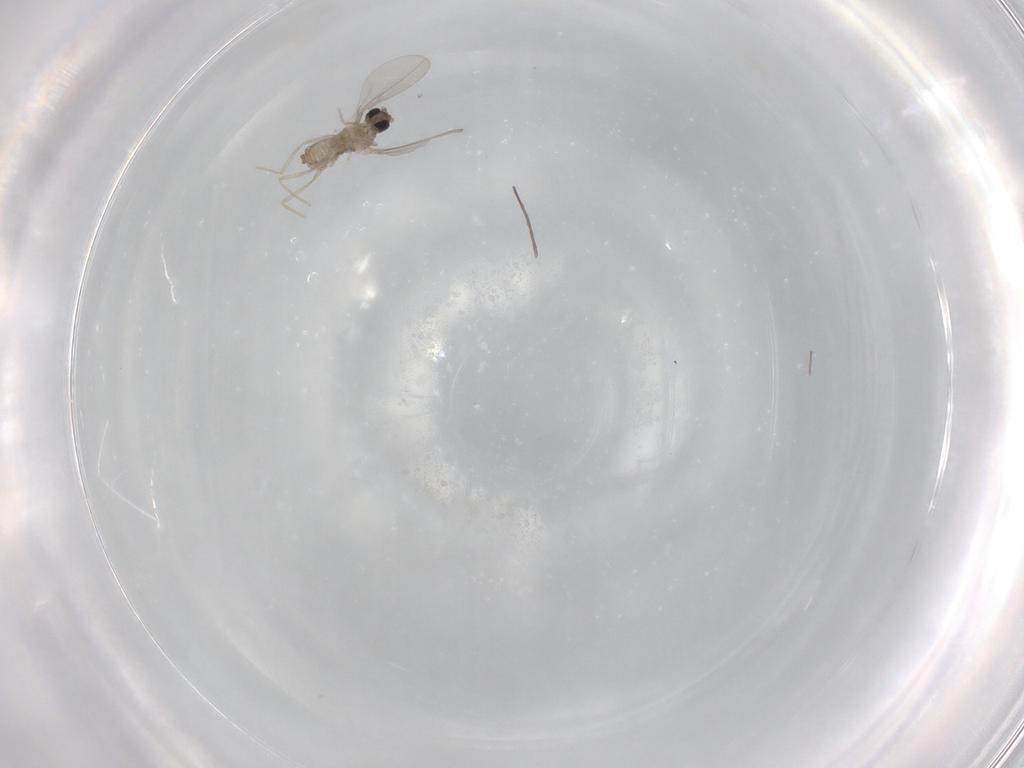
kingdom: Animalia
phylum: Arthropoda
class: Insecta
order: Diptera
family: Cecidomyiidae
